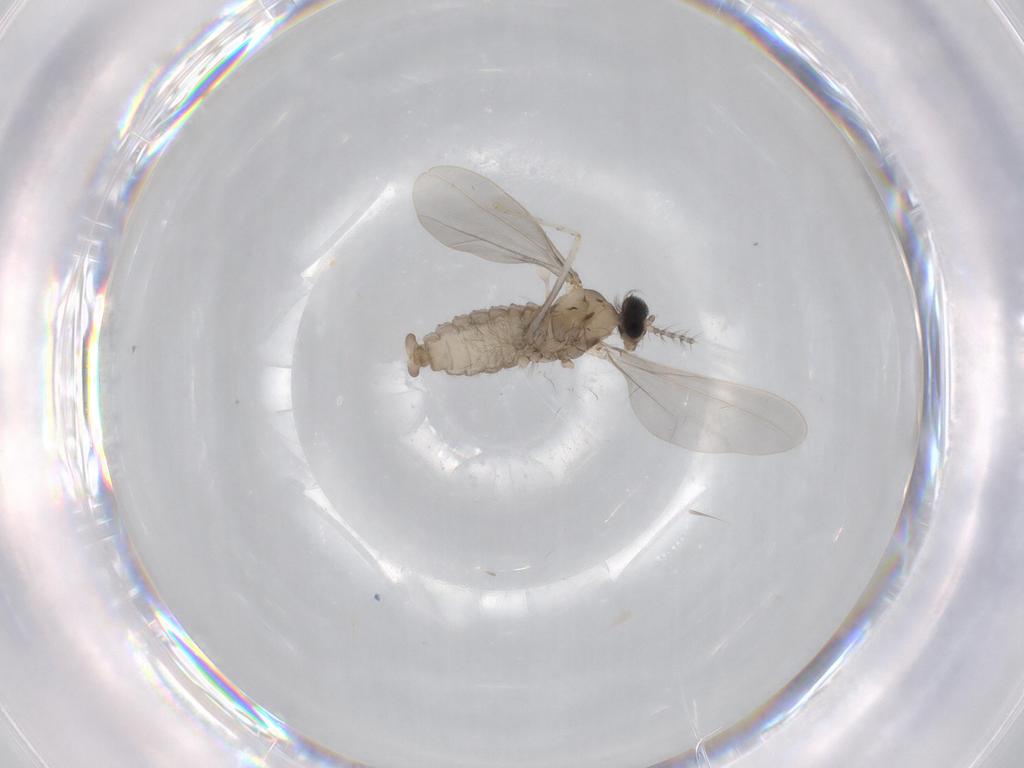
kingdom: Animalia
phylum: Arthropoda
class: Insecta
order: Diptera
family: Cecidomyiidae
